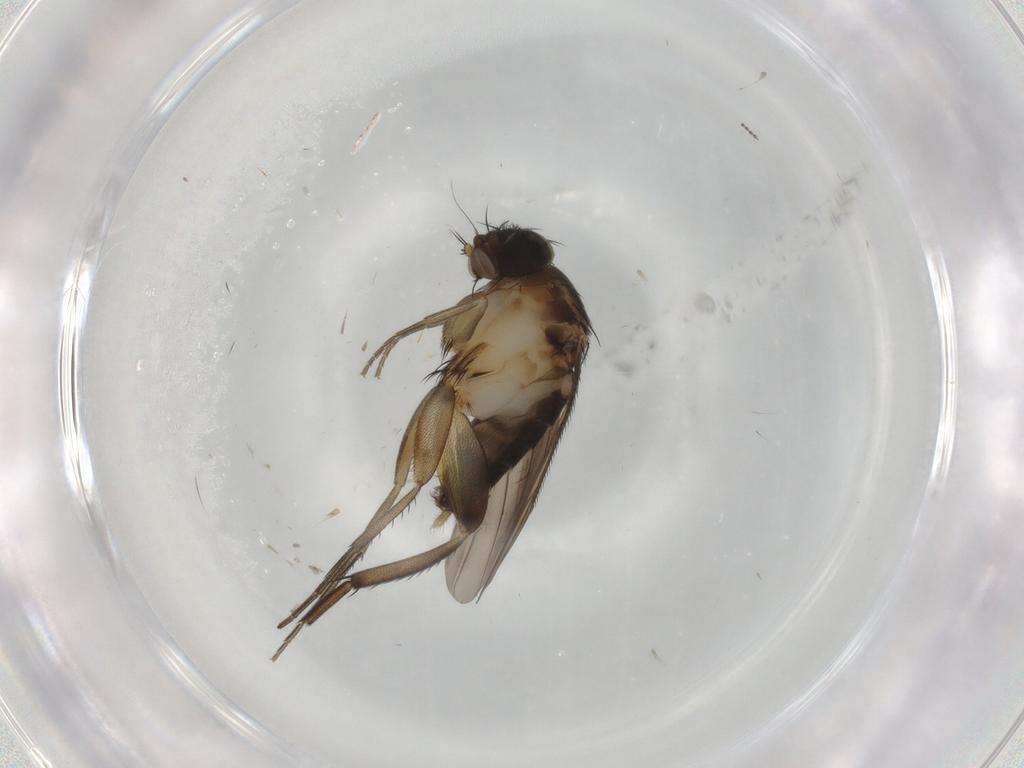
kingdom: Animalia
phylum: Arthropoda
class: Insecta
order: Diptera
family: Phoridae
